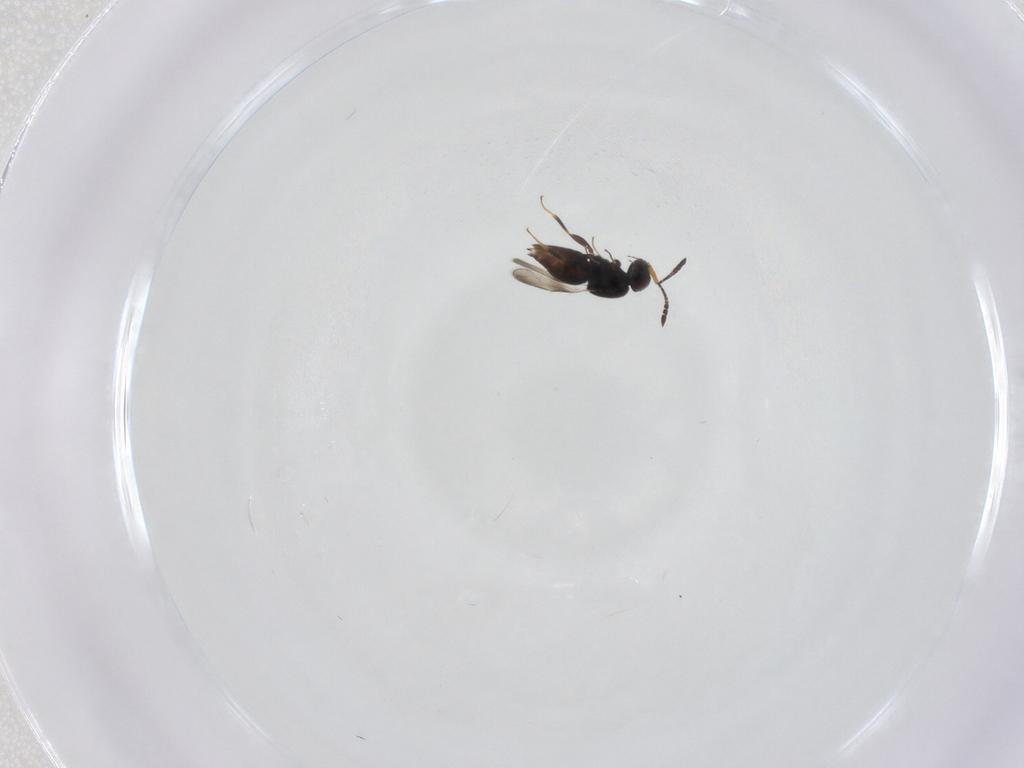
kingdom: Animalia
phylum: Arthropoda
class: Insecta
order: Hymenoptera
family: Ceraphronidae
